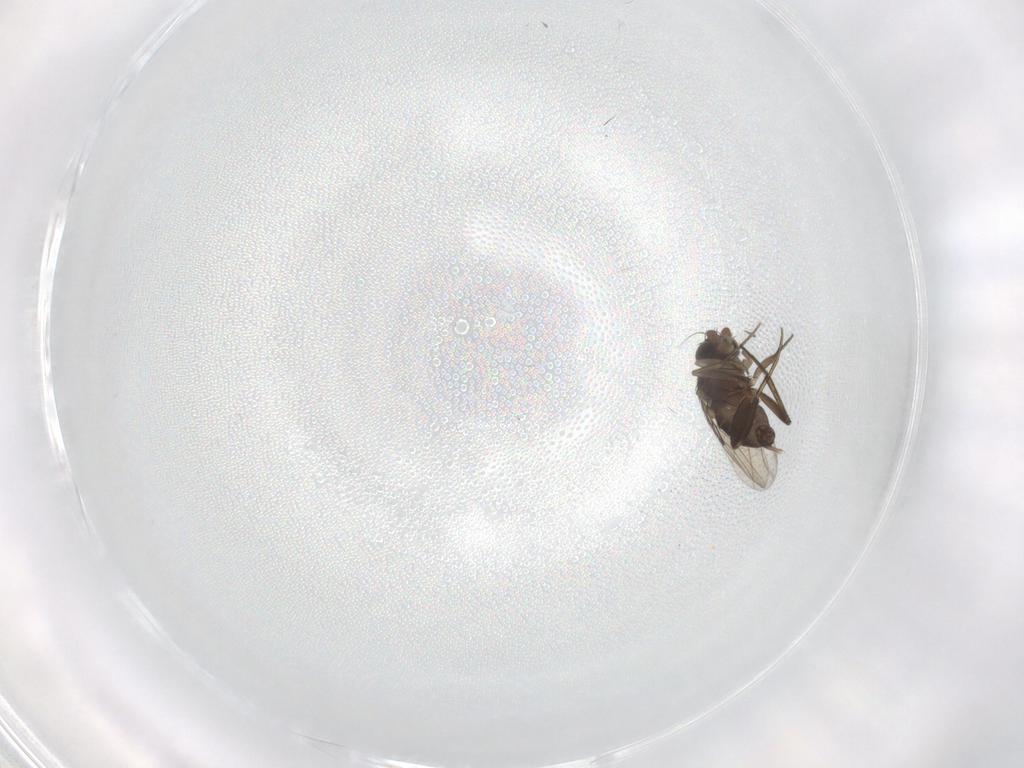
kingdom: Animalia
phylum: Arthropoda
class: Insecta
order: Diptera
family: Phoridae
